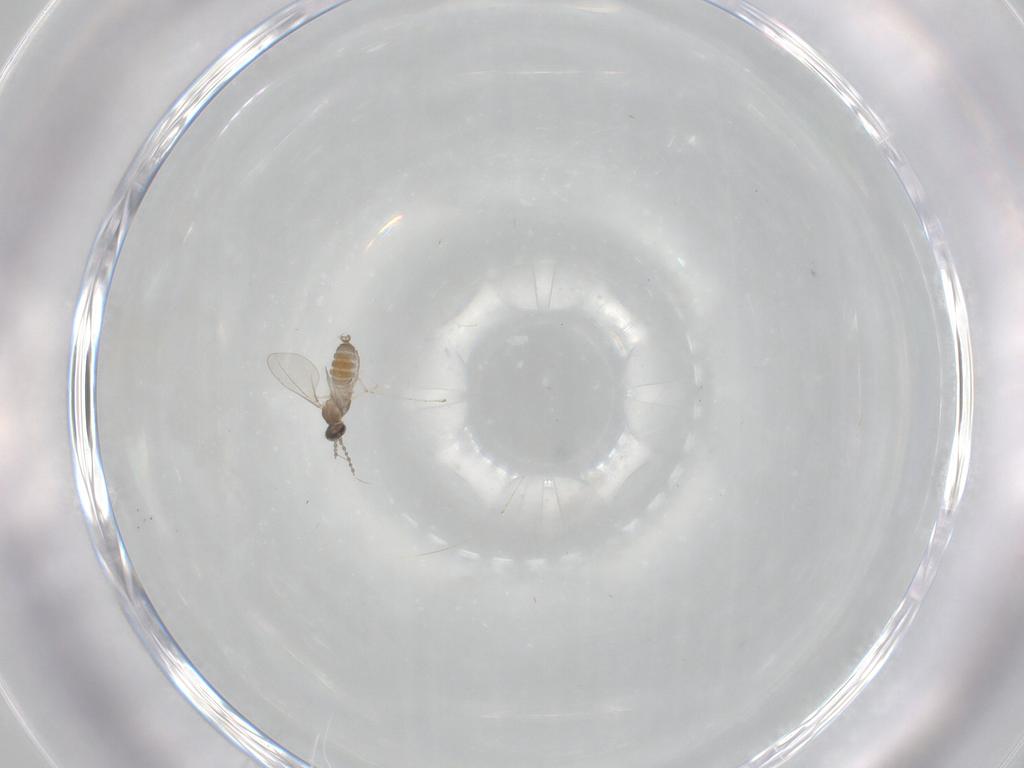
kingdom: Animalia
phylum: Arthropoda
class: Insecta
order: Diptera
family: Cecidomyiidae
